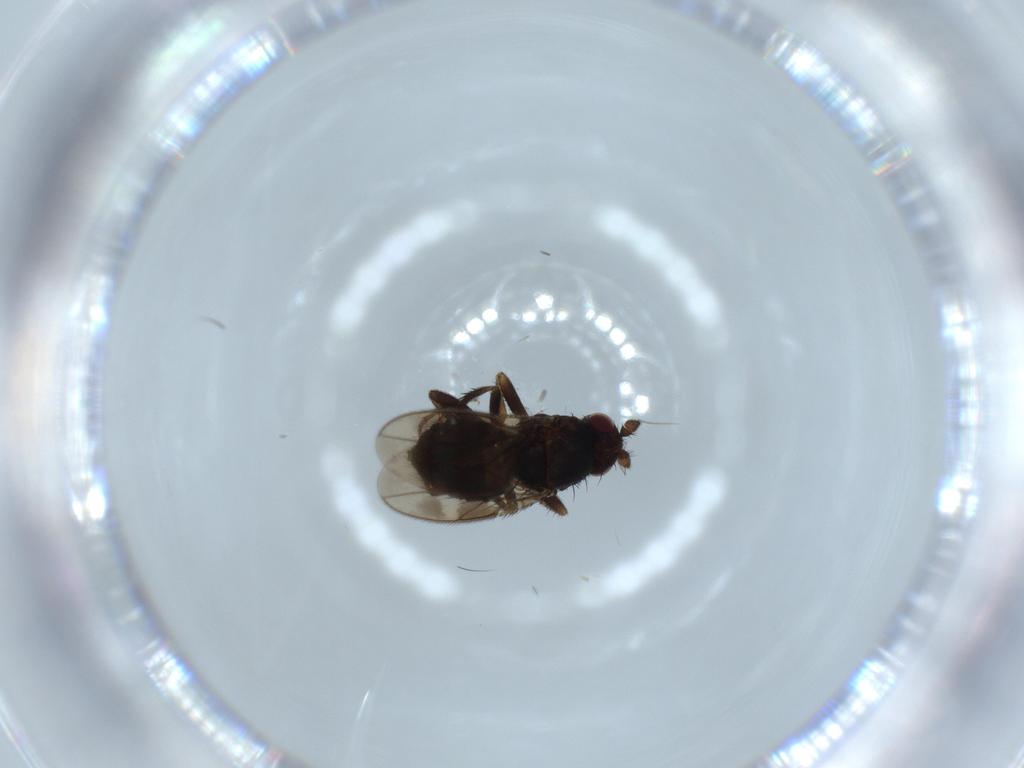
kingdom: Animalia
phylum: Arthropoda
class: Insecta
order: Diptera
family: Sphaeroceridae
